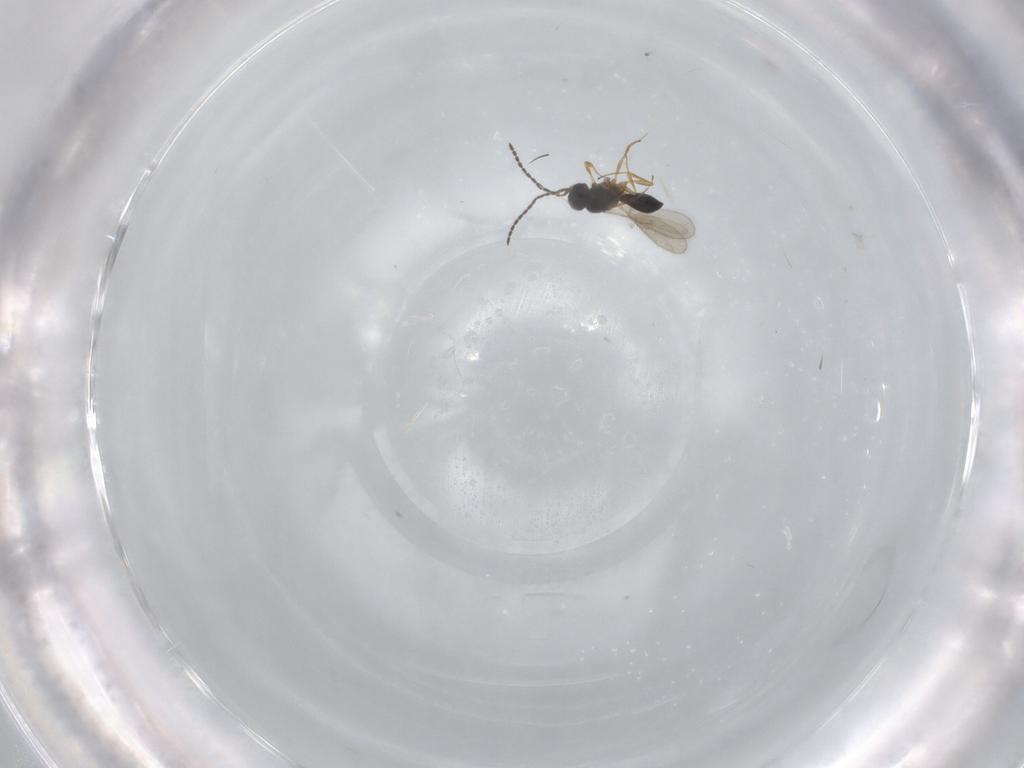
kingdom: Animalia
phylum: Arthropoda
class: Insecta
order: Hymenoptera
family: Scelionidae
